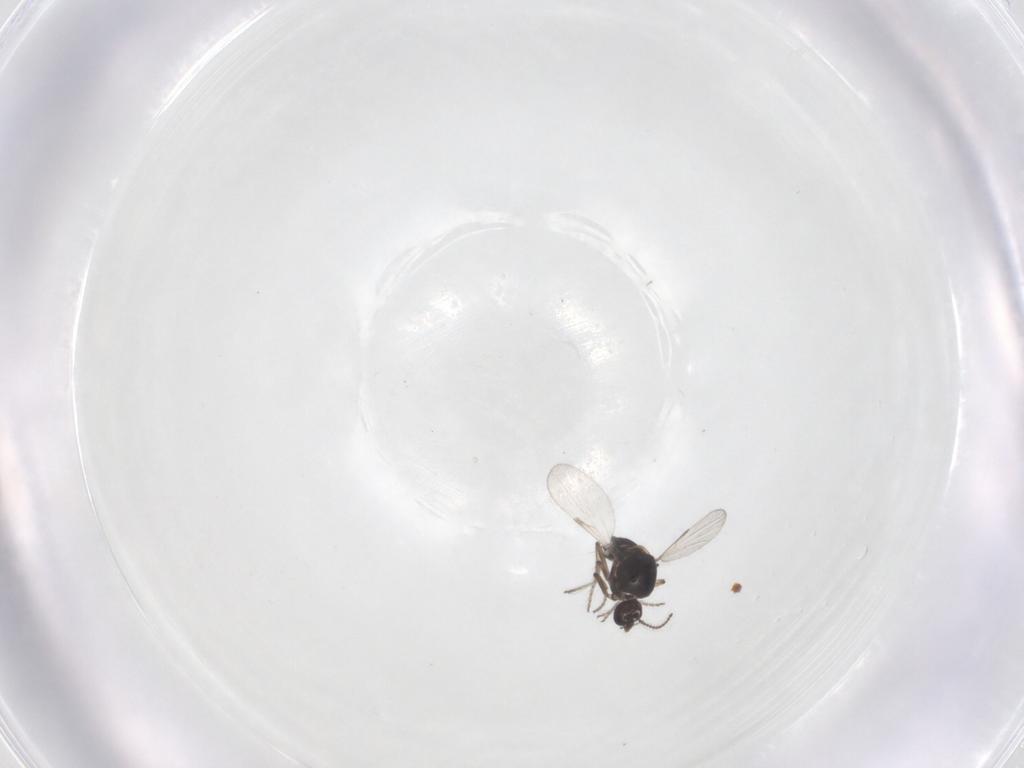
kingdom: Animalia
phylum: Arthropoda
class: Insecta
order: Diptera
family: Ceratopogonidae
